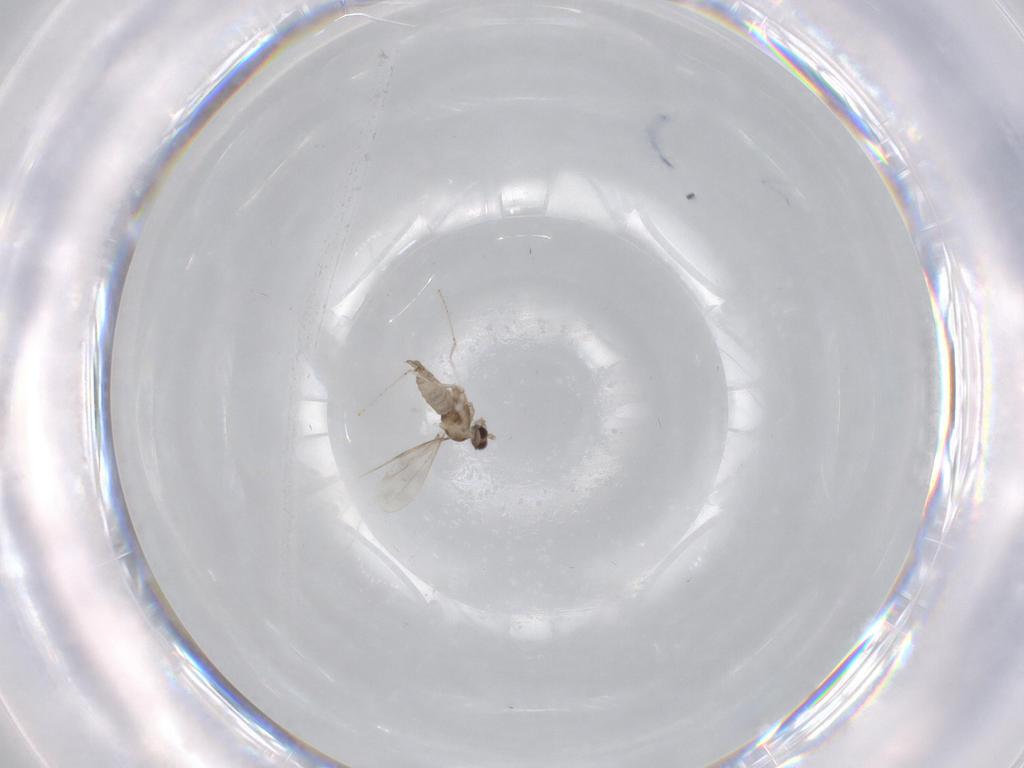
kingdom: Animalia
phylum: Arthropoda
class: Insecta
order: Diptera
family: Cecidomyiidae
